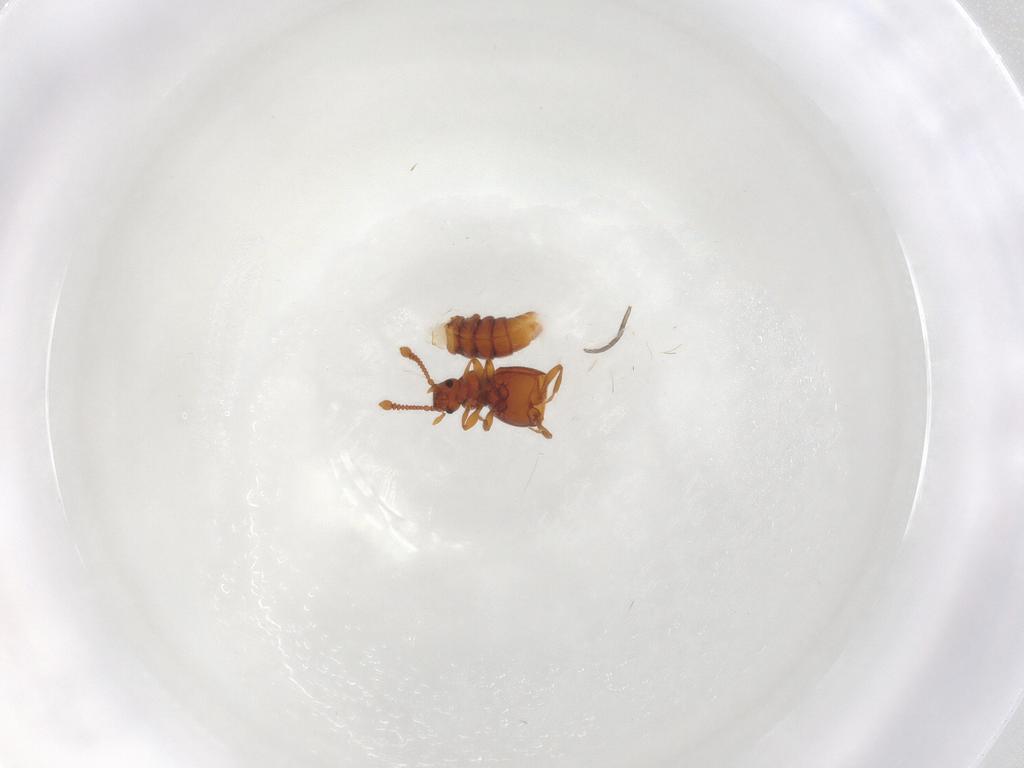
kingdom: Animalia
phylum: Arthropoda
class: Insecta
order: Coleoptera
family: Staphylinidae
